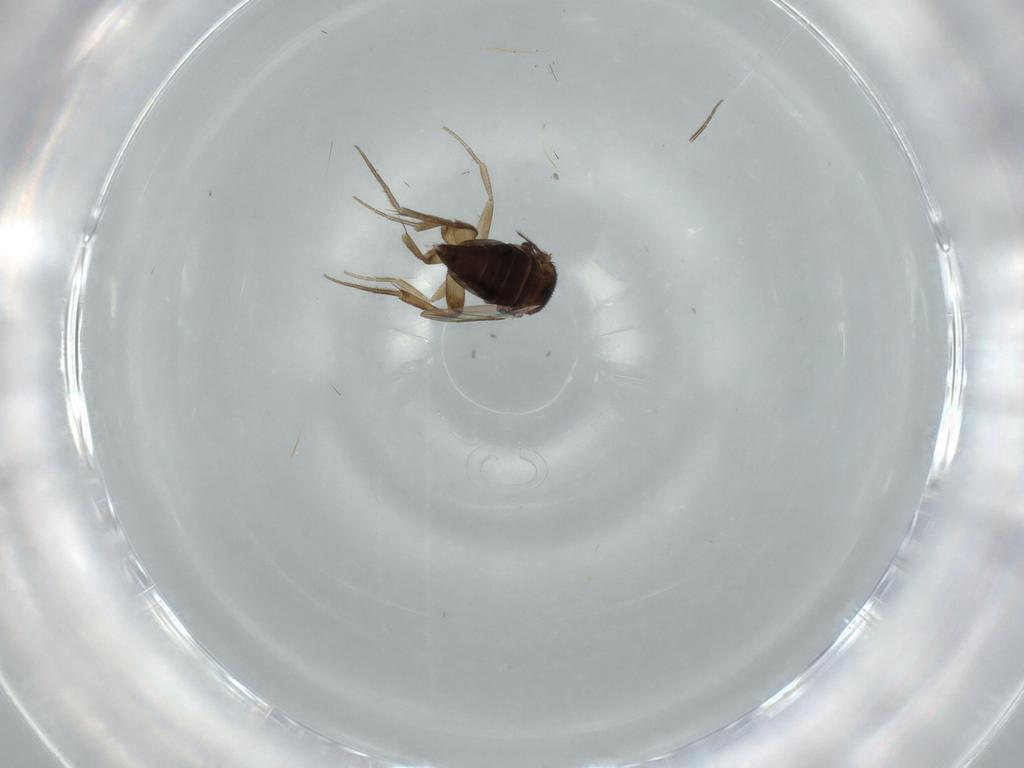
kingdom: Animalia
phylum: Arthropoda
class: Insecta
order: Diptera
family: Phoridae
